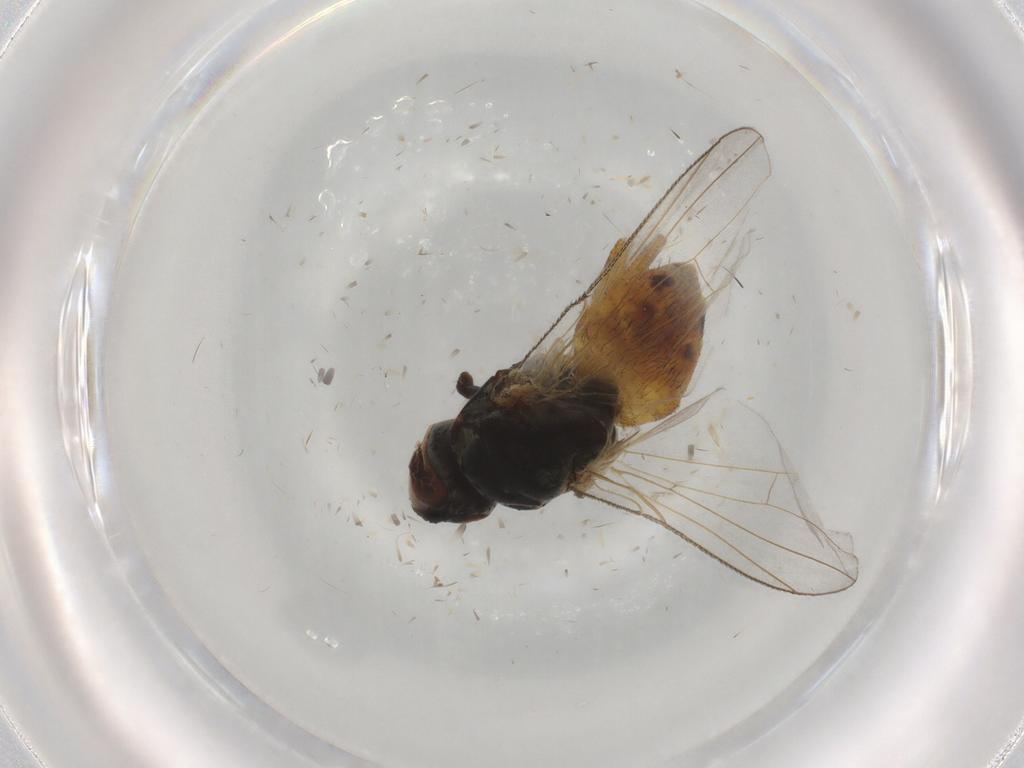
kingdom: Animalia
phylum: Arthropoda
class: Insecta
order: Diptera
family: Muscidae
